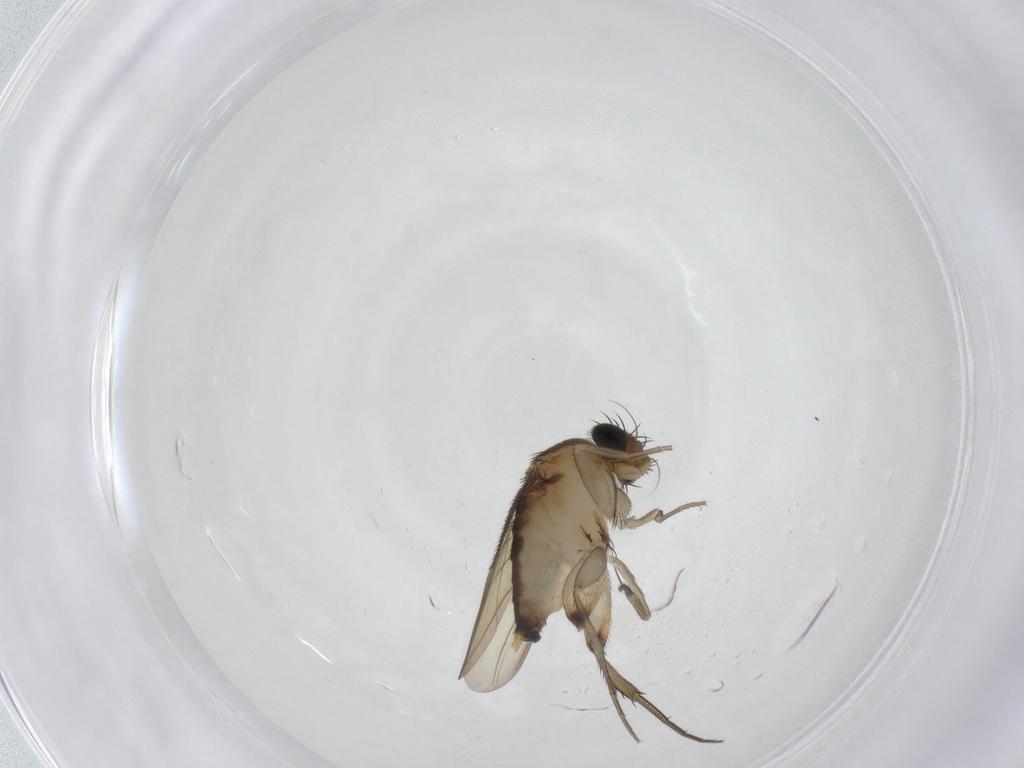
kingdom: Animalia
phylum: Arthropoda
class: Insecta
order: Diptera
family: Phoridae
